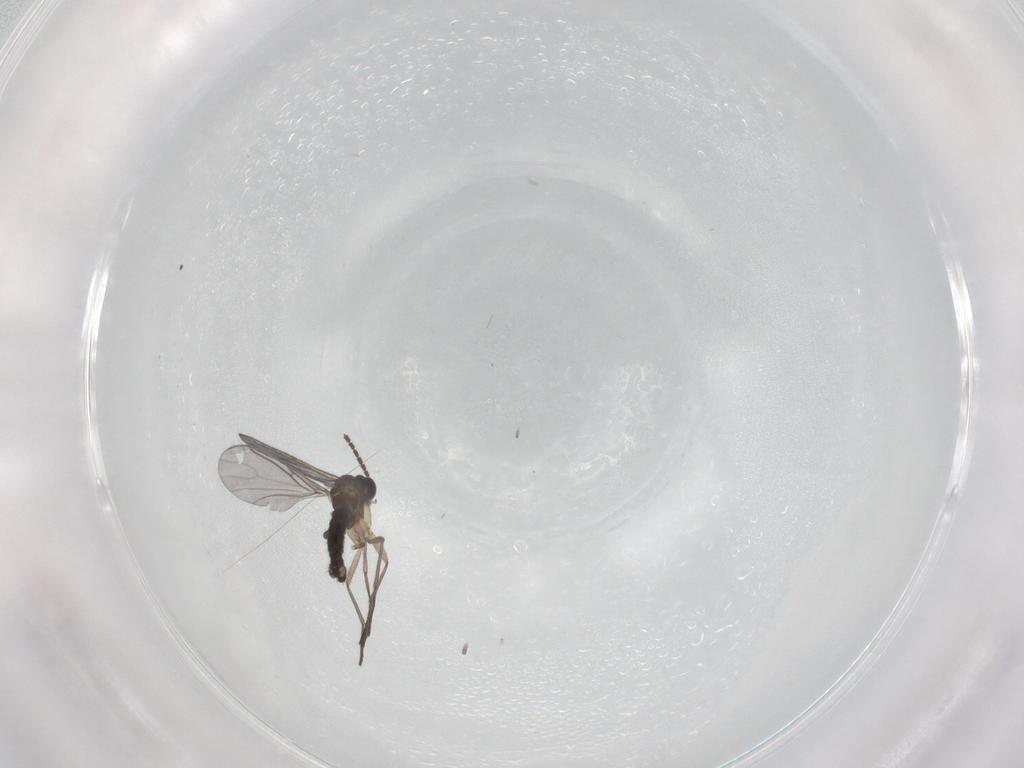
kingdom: Animalia
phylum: Arthropoda
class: Insecta
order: Diptera
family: Sciaridae
